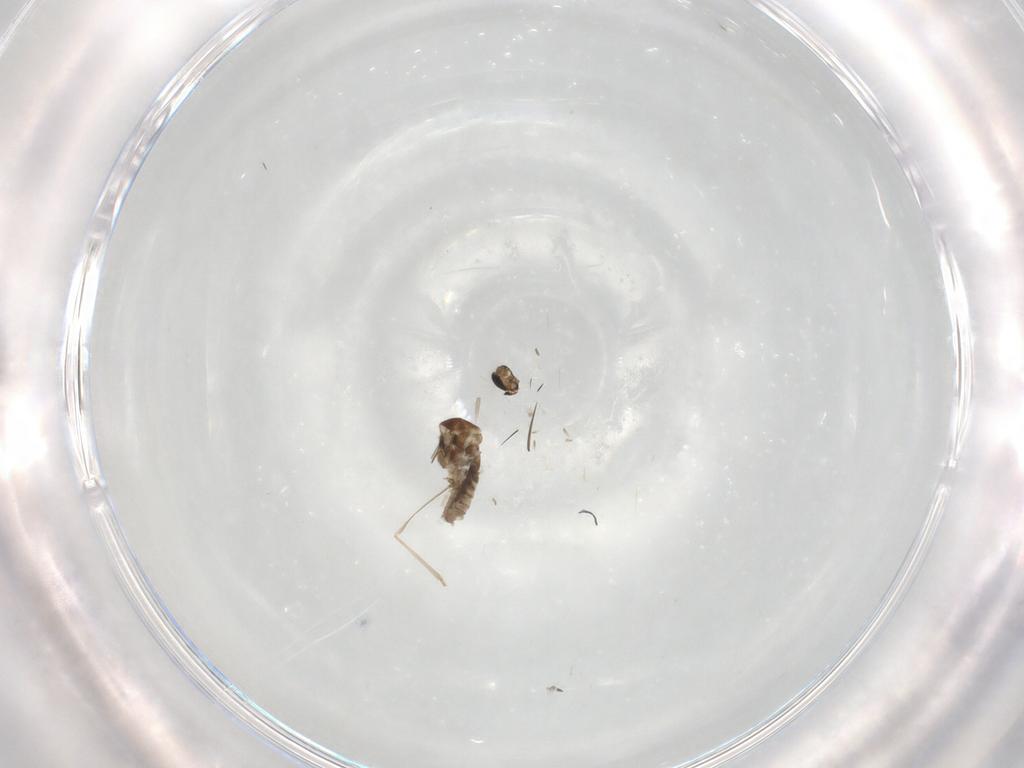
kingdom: Animalia
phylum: Arthropoda
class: Insecta
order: Diptera
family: Cecidomyiidae
